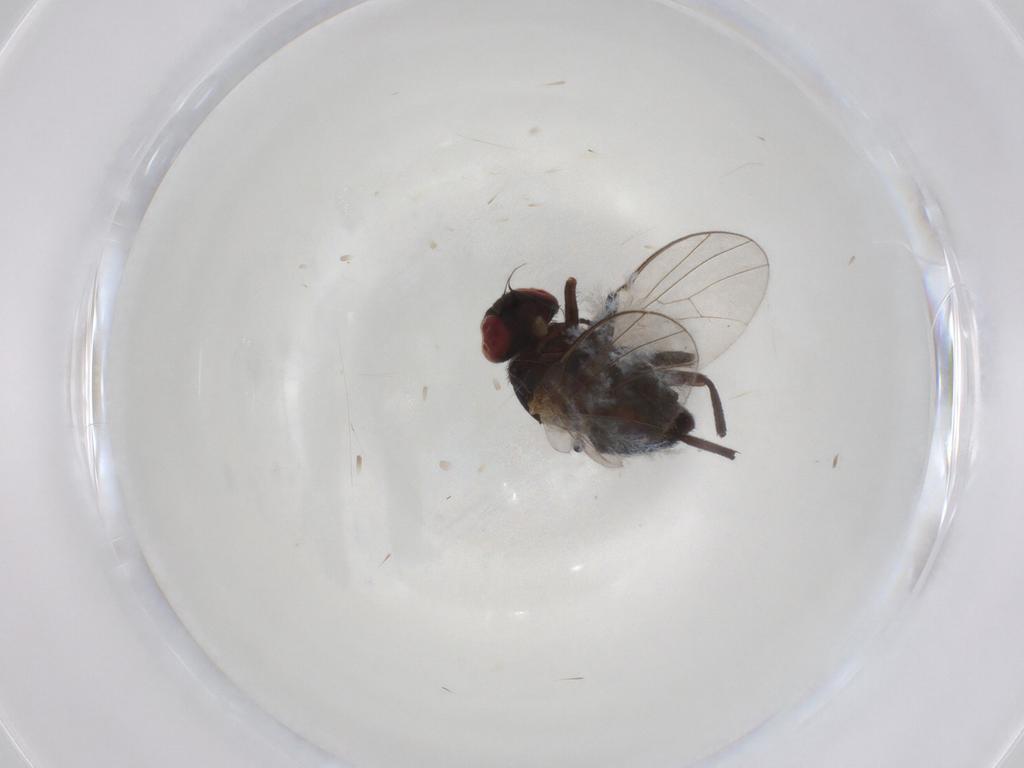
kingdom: Animalia
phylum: Arthropoda
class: Insecta
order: Diptera
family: Agromyzidae
